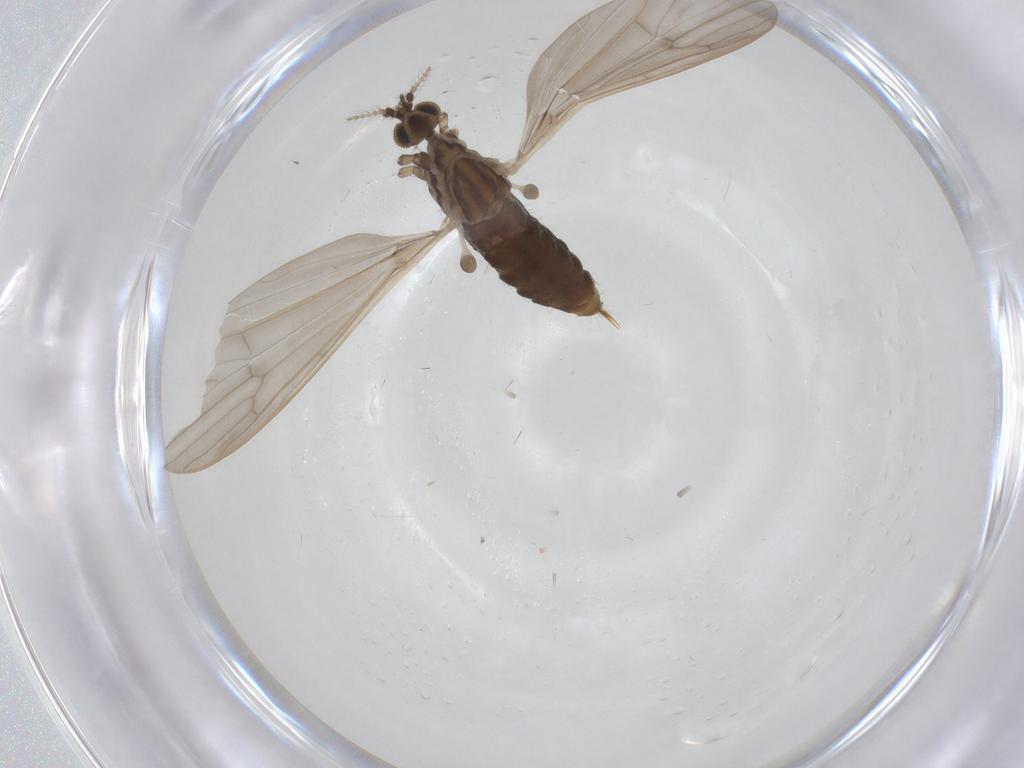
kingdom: Animalia
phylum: Arthropoda
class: Insecta
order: Diptera
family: Limoniidae
